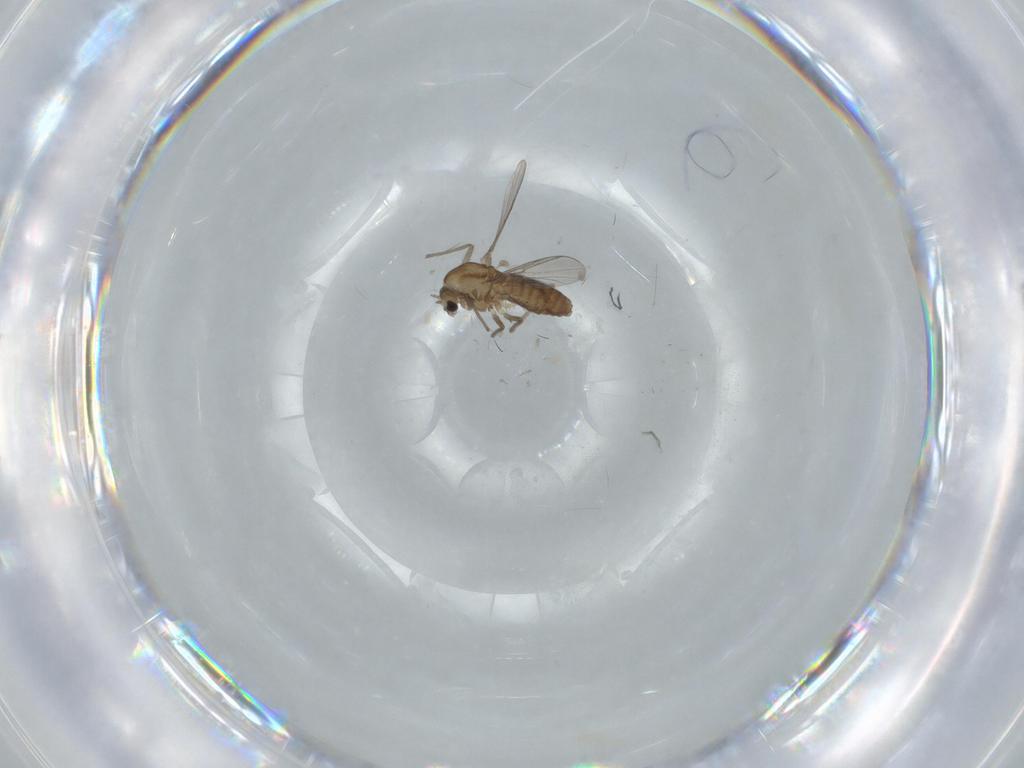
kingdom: Animalia
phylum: Arthropoda
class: Insecta
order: Diptera
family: Chironomidae
